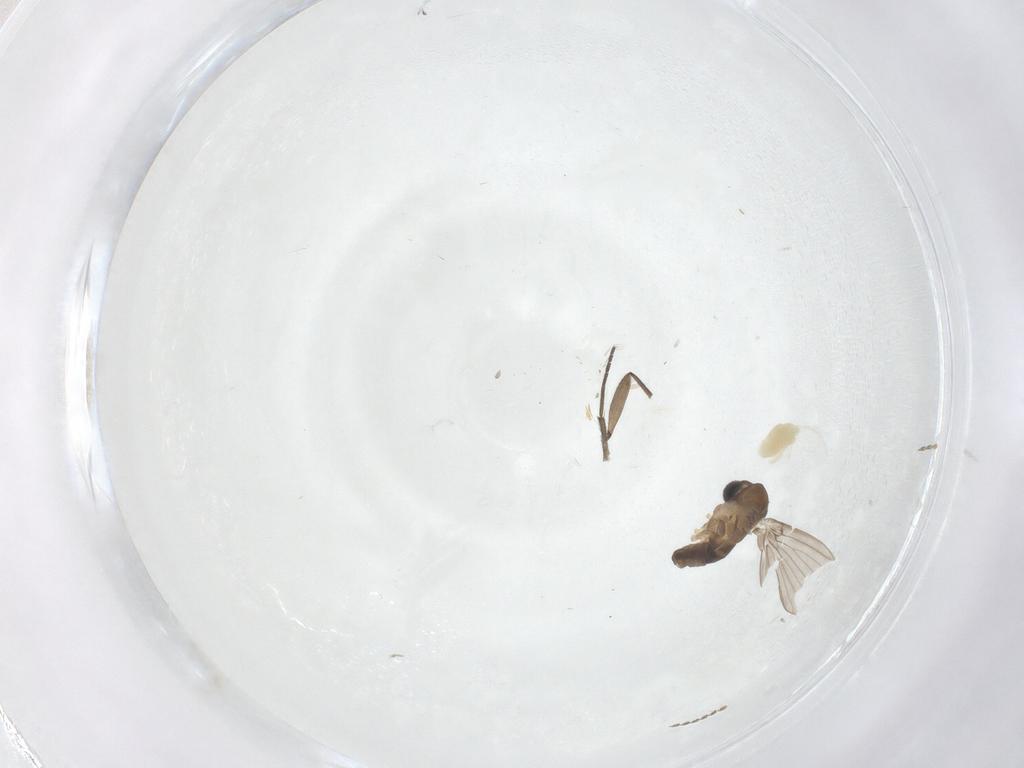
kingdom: Animalia
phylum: Arthropoda
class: Arachnida
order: Trombidiformes
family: Eupodidae
